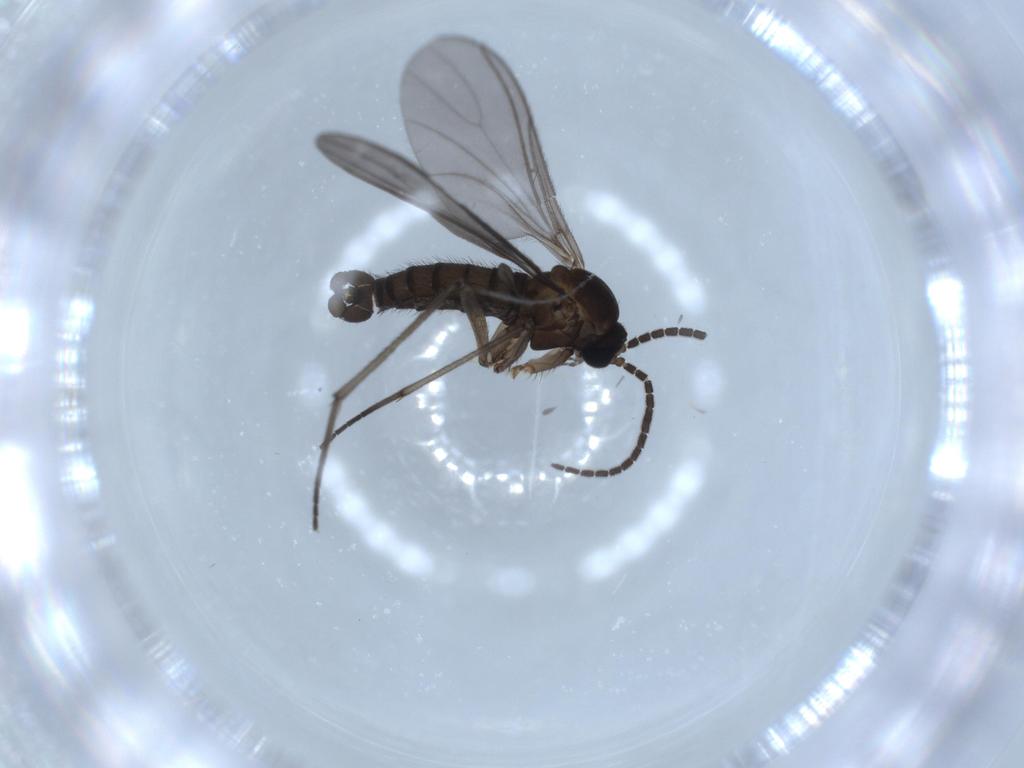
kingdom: Animalia
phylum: Arthropoda
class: Insecta
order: Diptera
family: Sciaridae
